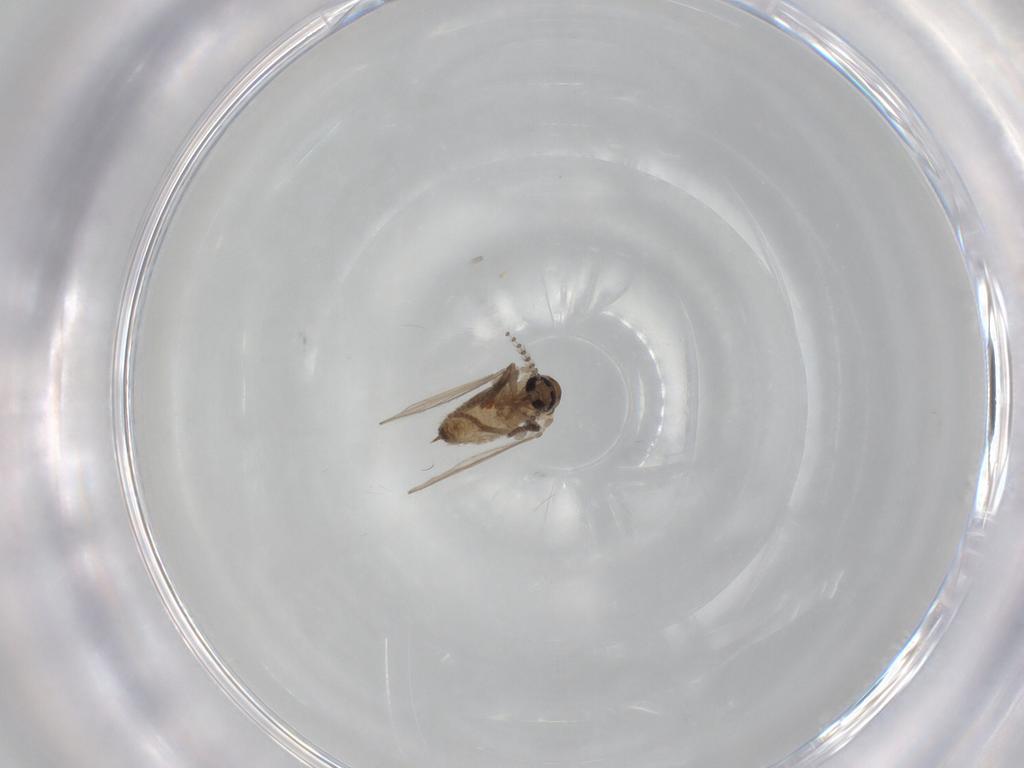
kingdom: Animalia
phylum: Arthropoda
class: Insecta
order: Diptera
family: Psychodidae
